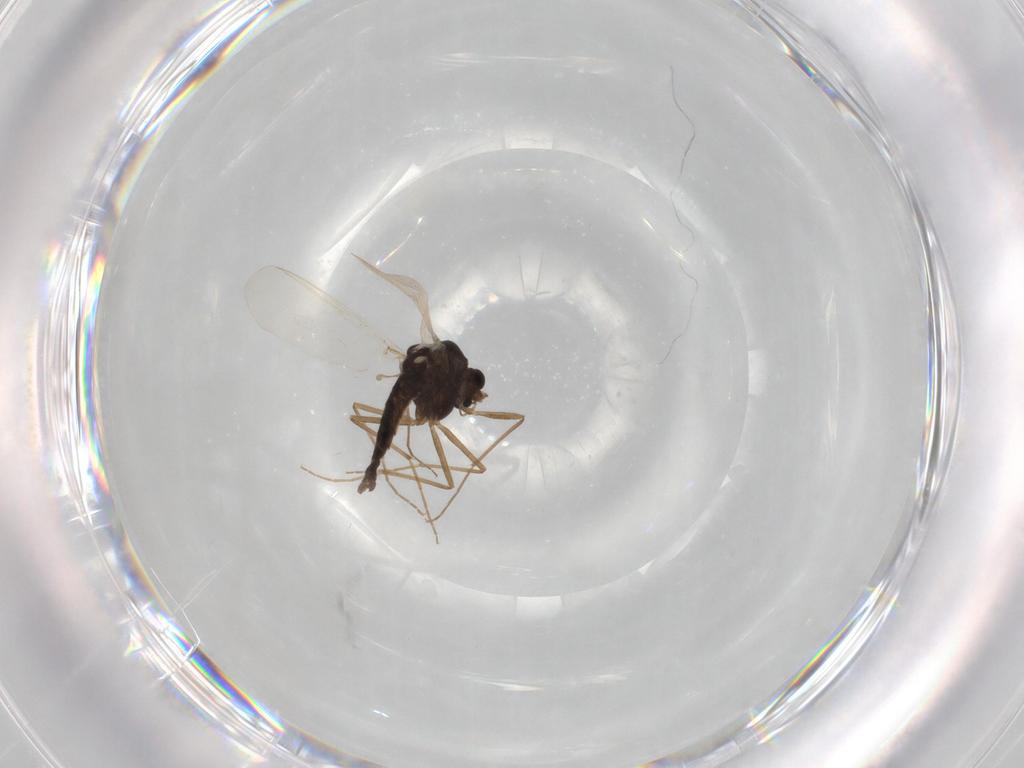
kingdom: Animalia
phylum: Arthropoda
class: Insecta
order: Diptera
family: Chironomidae
